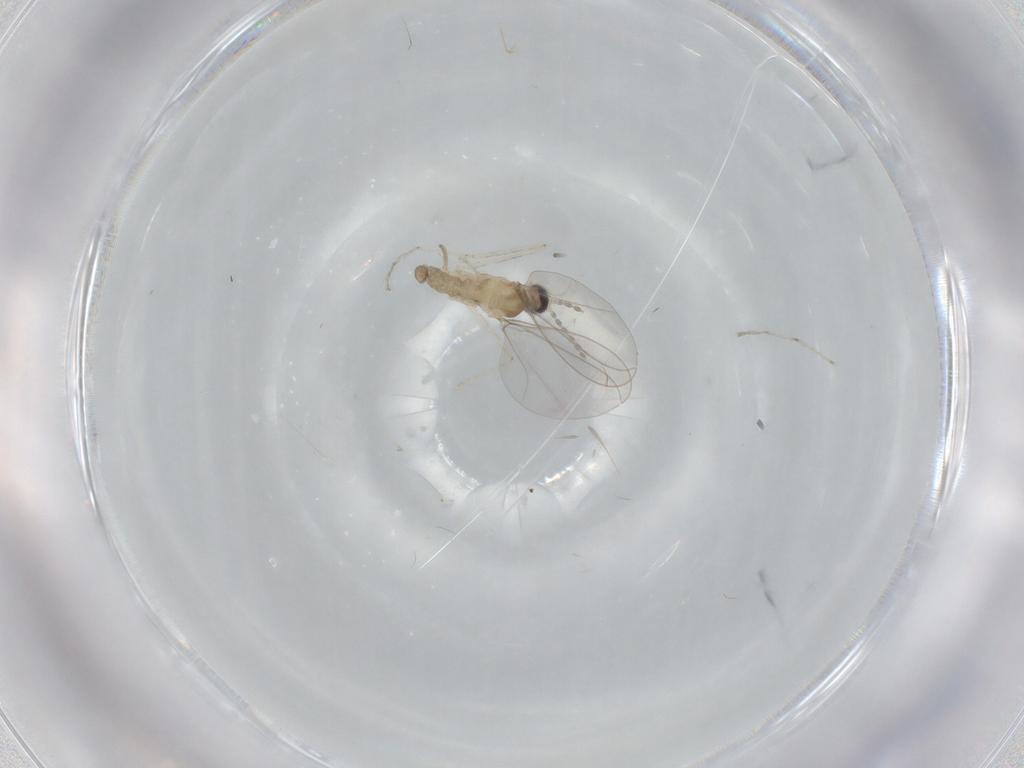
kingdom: Animalia
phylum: Arthropoda
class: Insecta
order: Diptera
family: Cecidomyiidae
